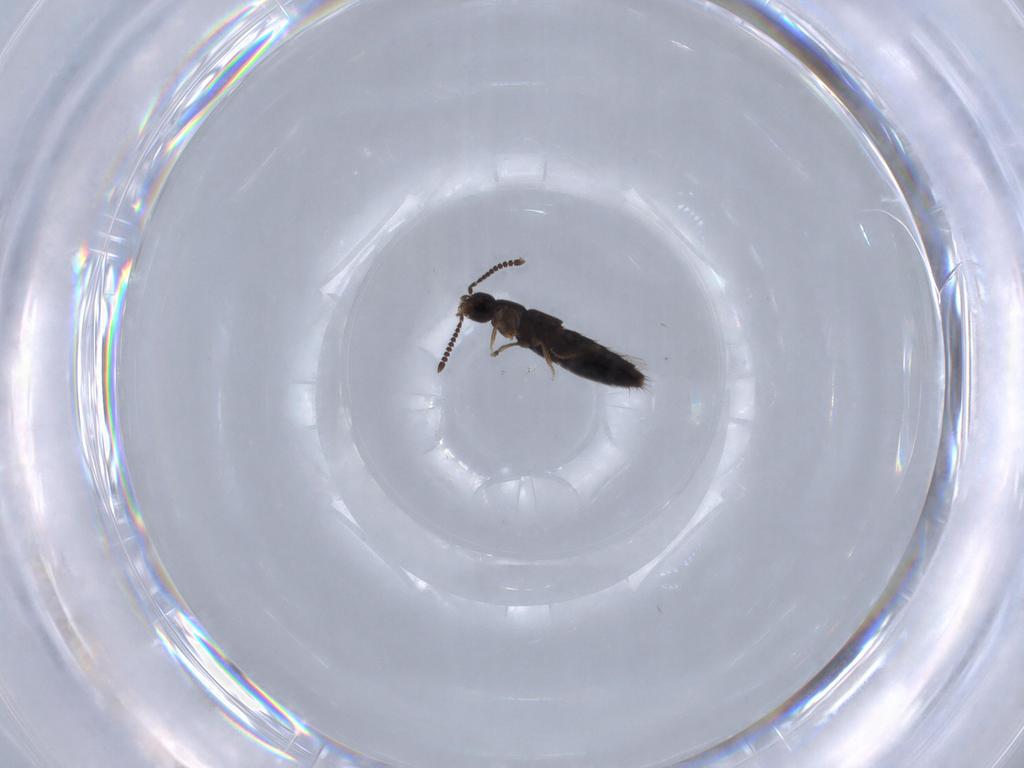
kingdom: Animalia
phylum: Arthropoda
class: Insecta
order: Coleoptera
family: Staphylinidae
